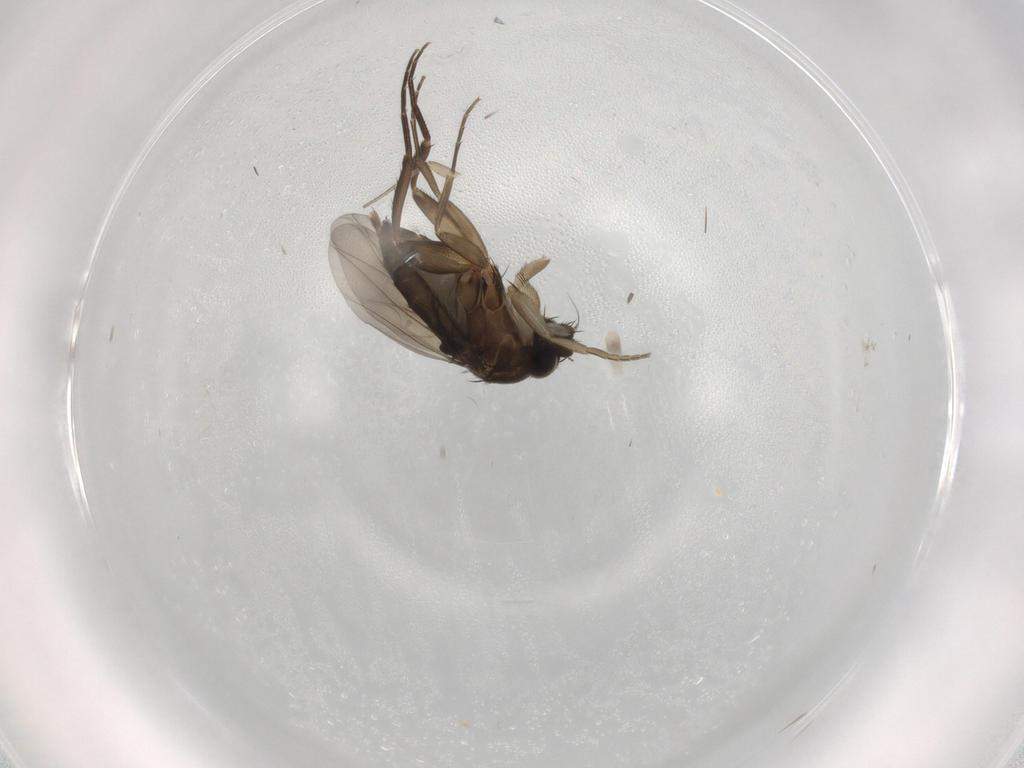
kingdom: Animalia
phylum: Arthropoda
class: Insecta
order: Diptera
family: Phoridae
